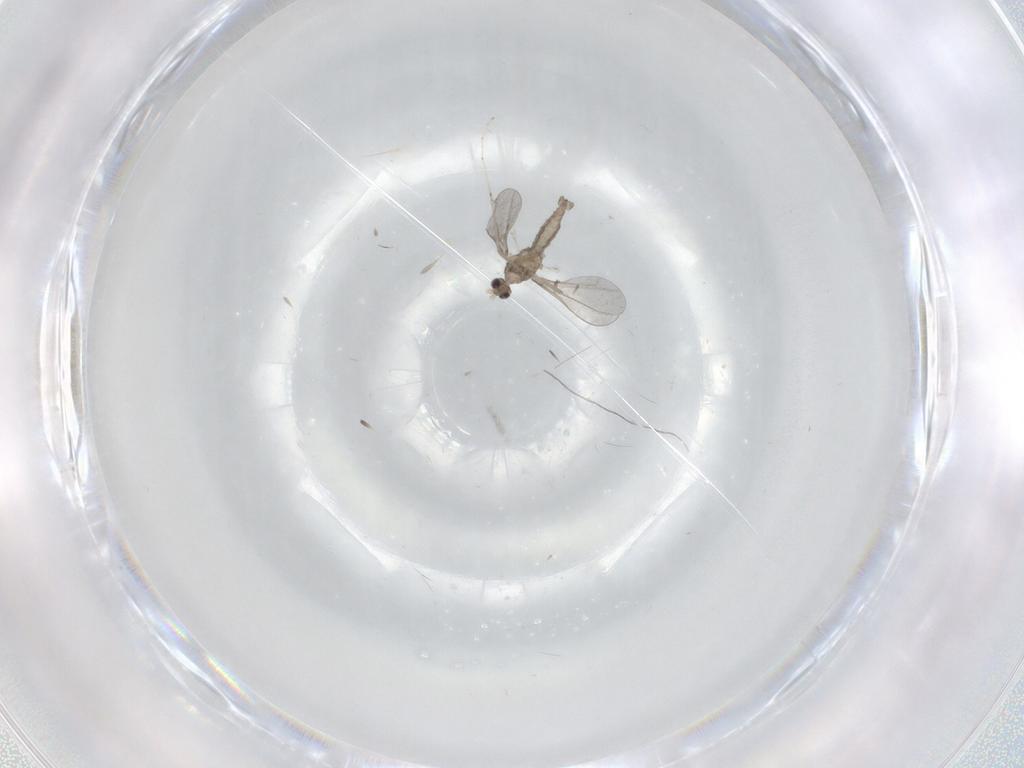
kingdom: Animalia
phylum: Arthropoda
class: Insecta
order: Diptera
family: Cecidomyiidae
